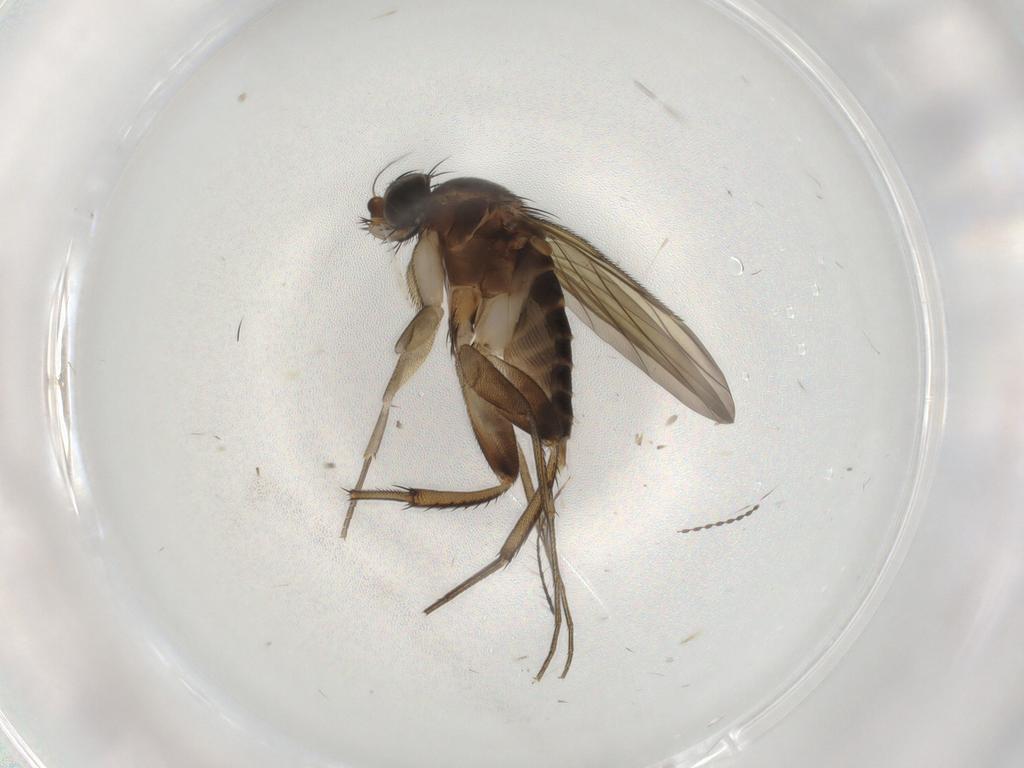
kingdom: Animalia
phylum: Arthropoda
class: Insecta
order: Diptera
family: Phoridae
